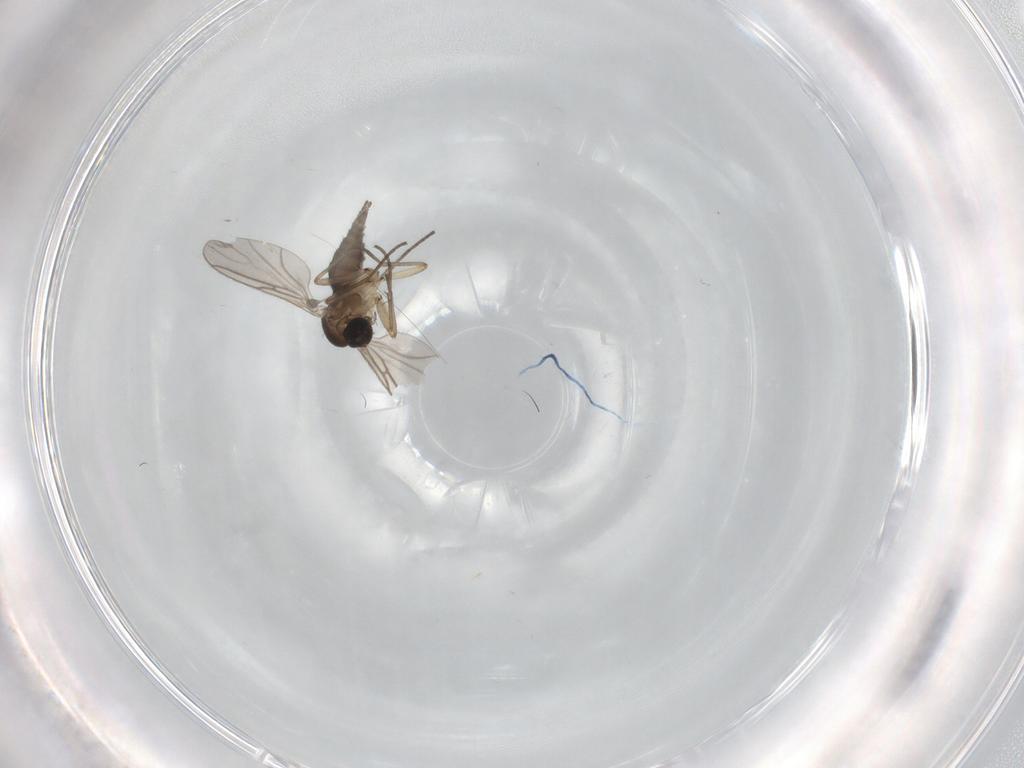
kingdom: Animalia
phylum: Arthropoda
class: Insecta
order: Diptera
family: Sciaridae
